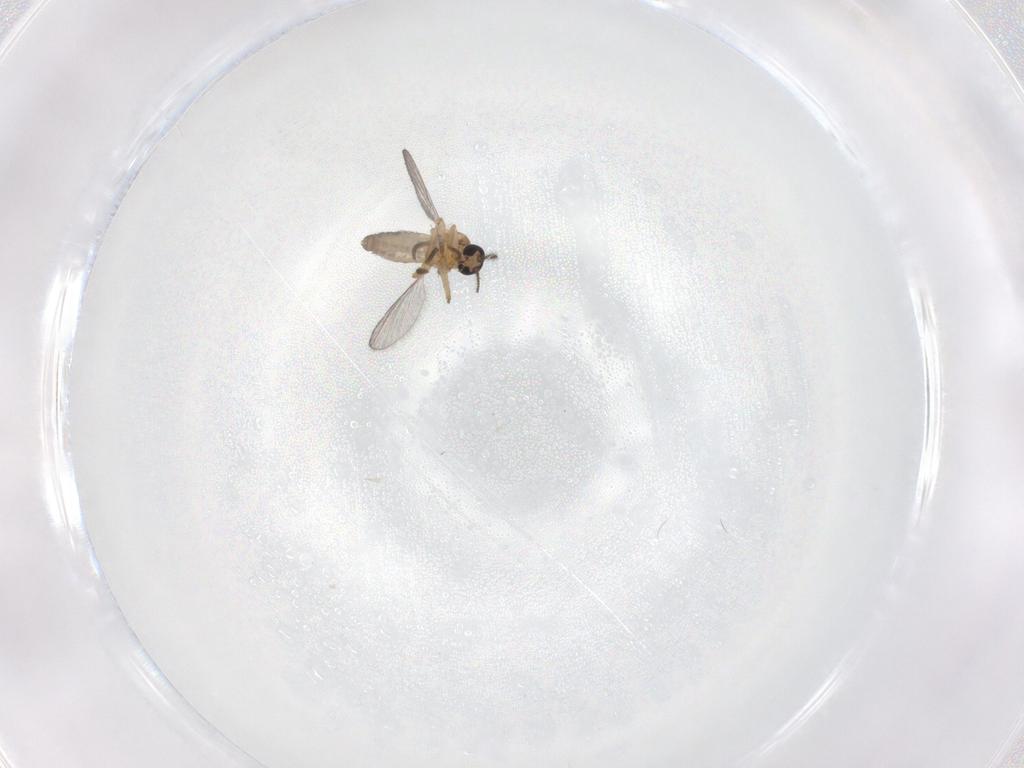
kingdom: Animalia
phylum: Arthropoda
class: Insecta
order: Diptera
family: Ceratopogonidae
